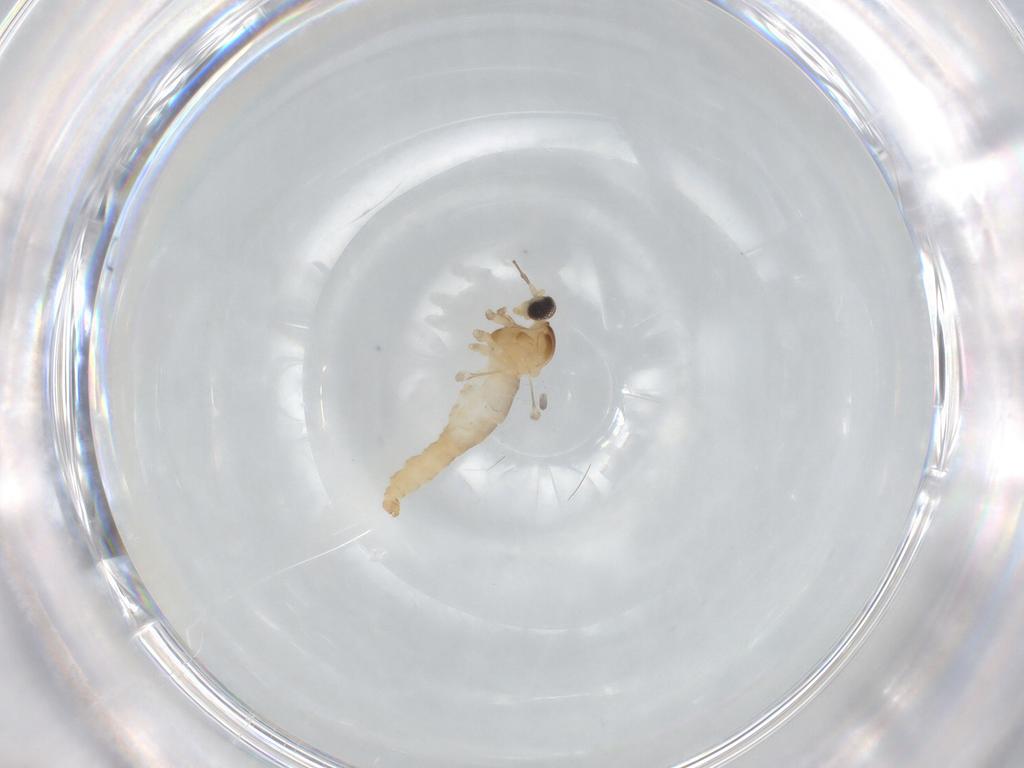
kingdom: Animalia
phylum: Arthropoda
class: Insecta
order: Diptera
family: Cecidomyiidae
